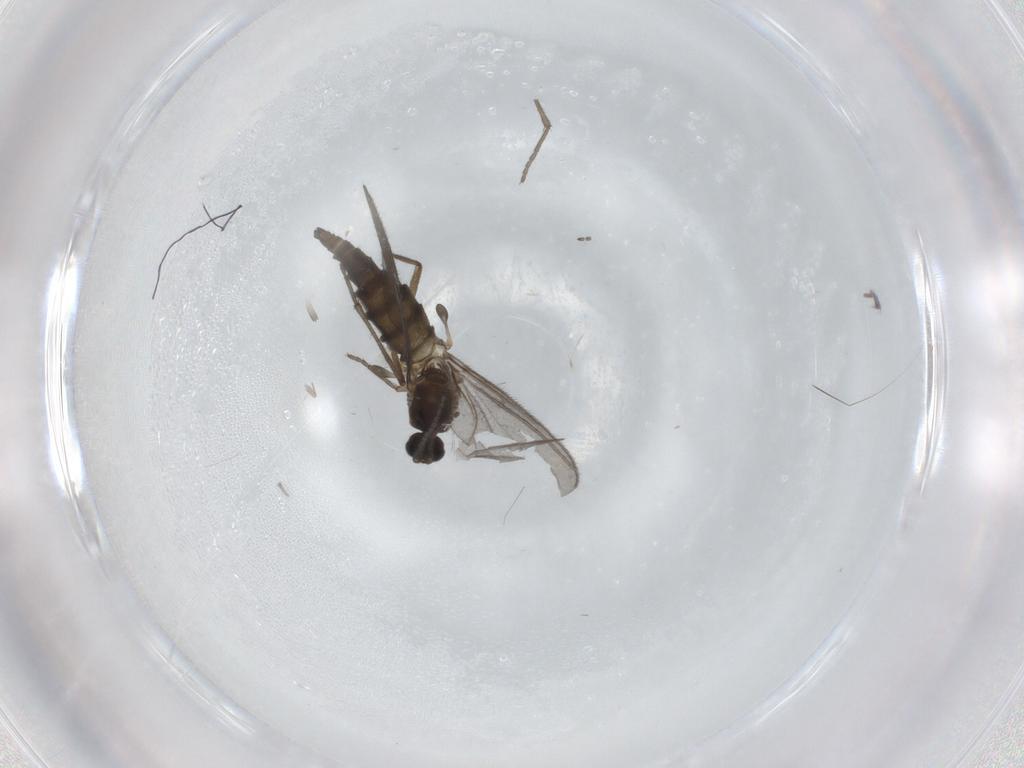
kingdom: Animalia
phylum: Arthropoda
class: Insecta
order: Diptera
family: Sciaridae
